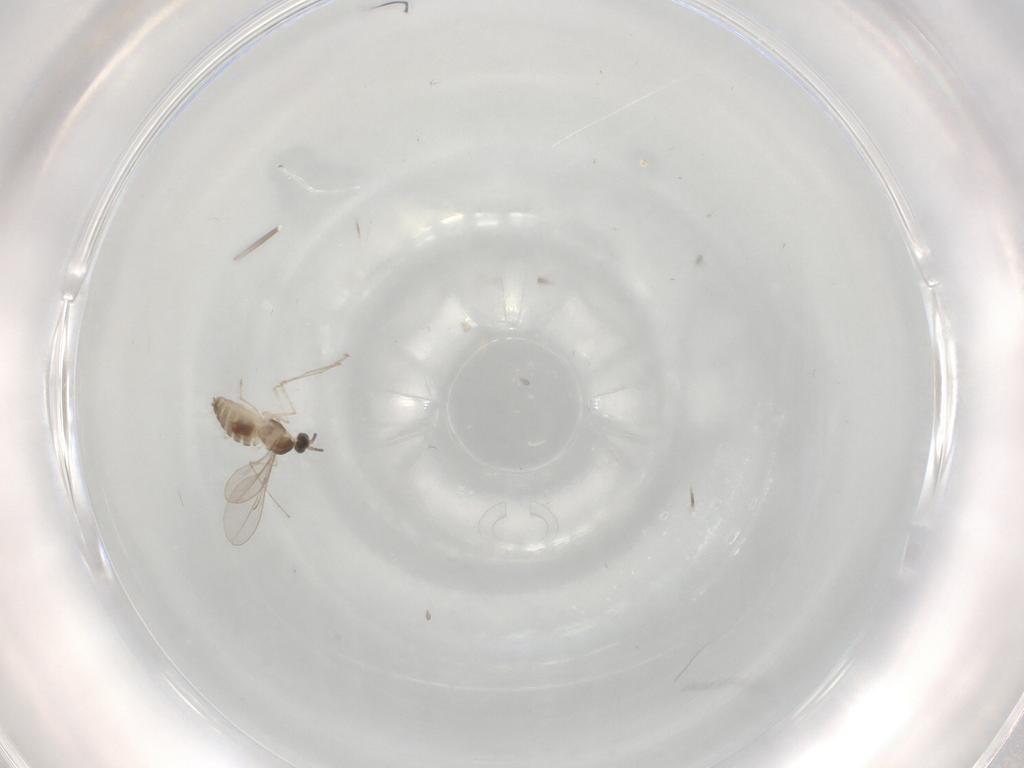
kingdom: Animalia
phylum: Arthropoda
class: Insecta
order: Diptera
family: Cecidomyiidae
